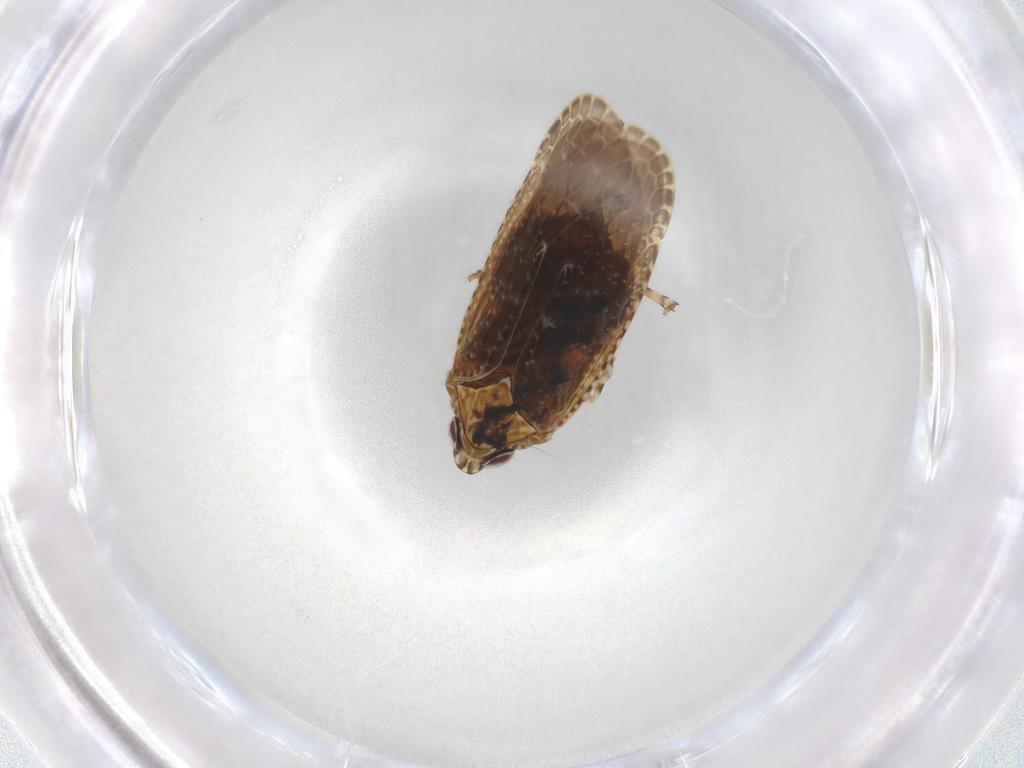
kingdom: Animalia
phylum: Arthropoda
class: Insecta
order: Hemiptera
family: Achilidae
